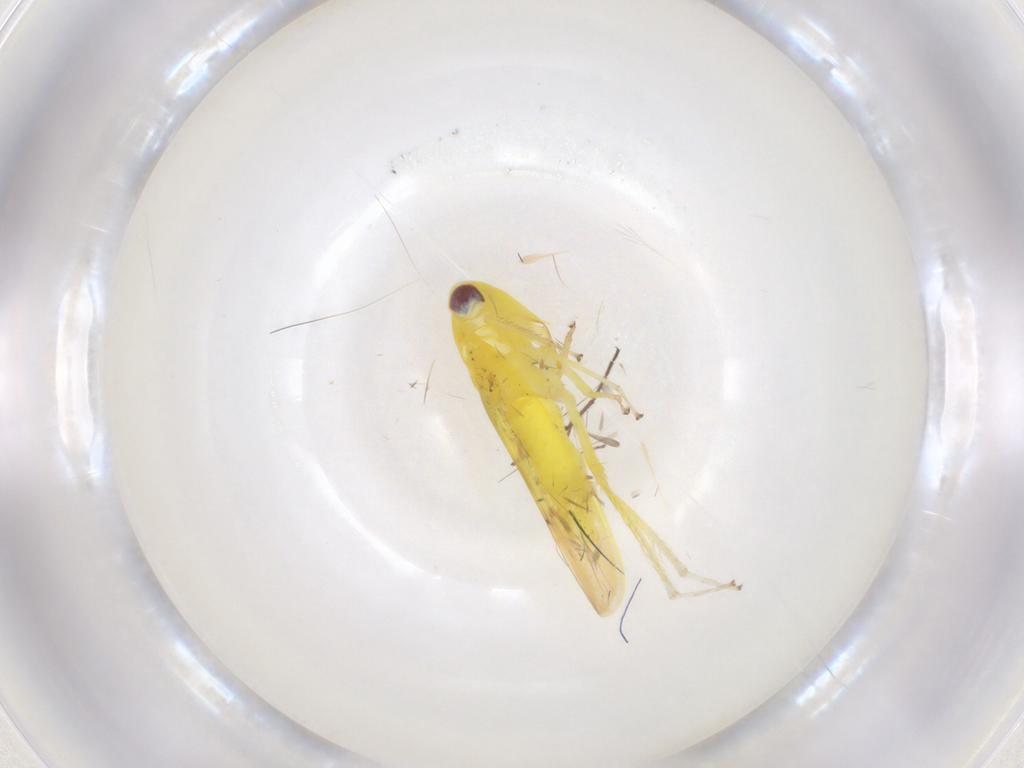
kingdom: Animalia
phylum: Arthropoda
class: Insecta
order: Hemiptera
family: Cicadellidae
